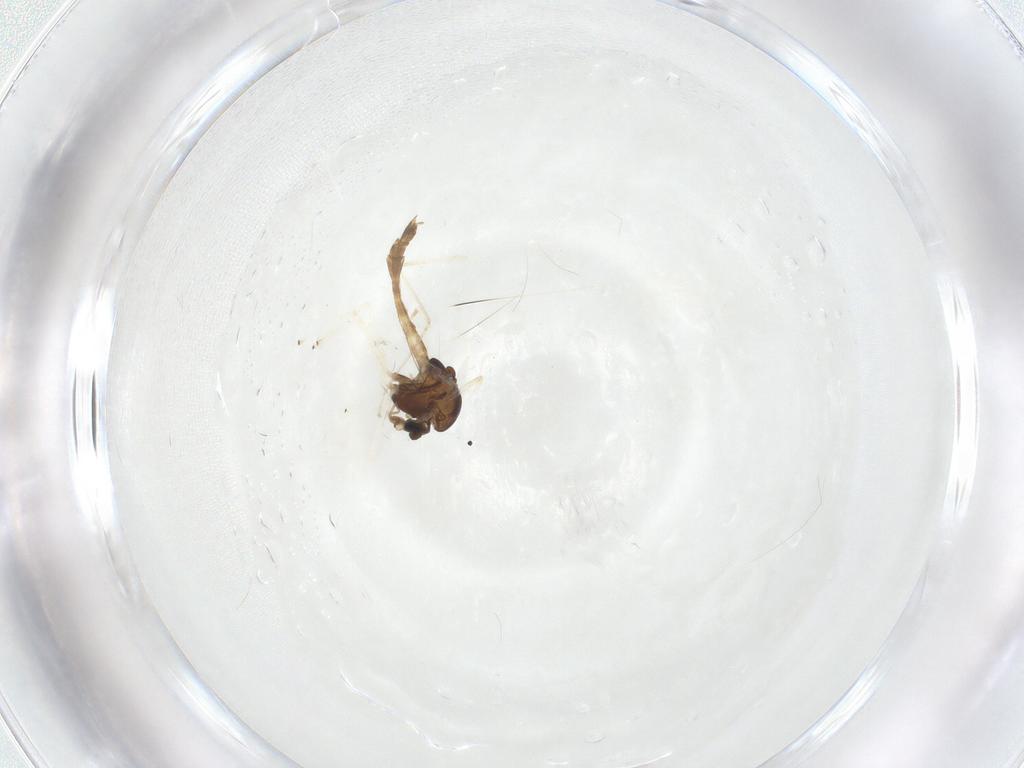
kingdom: Animalia
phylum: Arthropoda
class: Insecta
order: Diptera
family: Chironomidae
